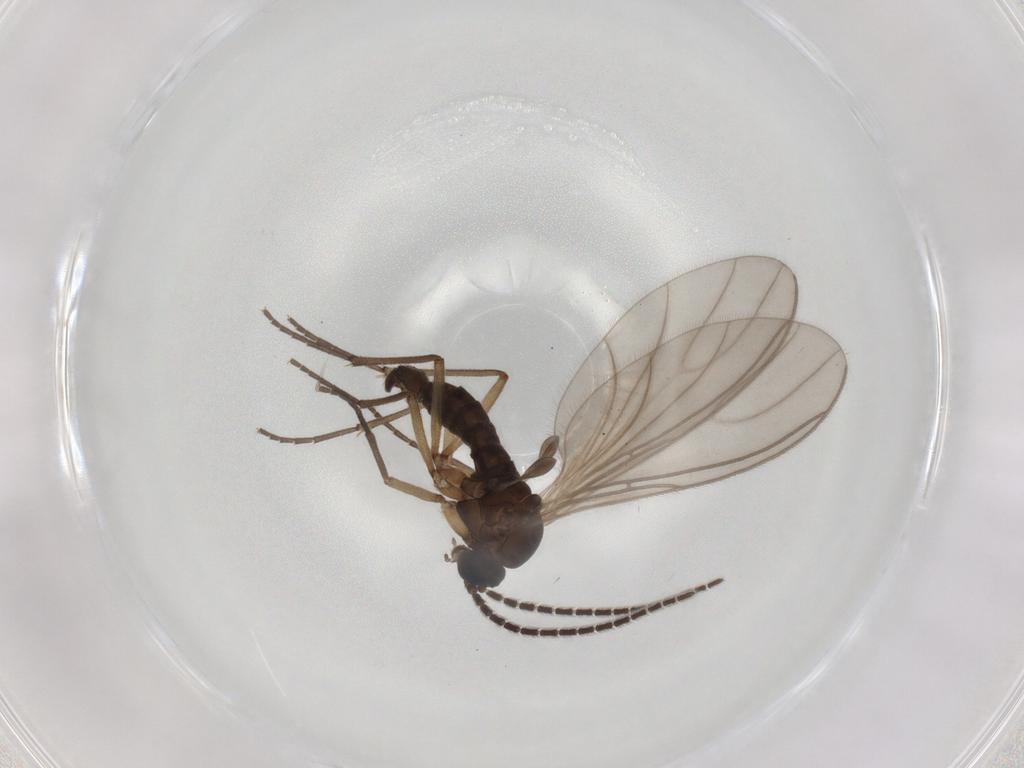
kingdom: Animalia
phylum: Arthropoda
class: Insecta
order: Diptera
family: Sciaridae
